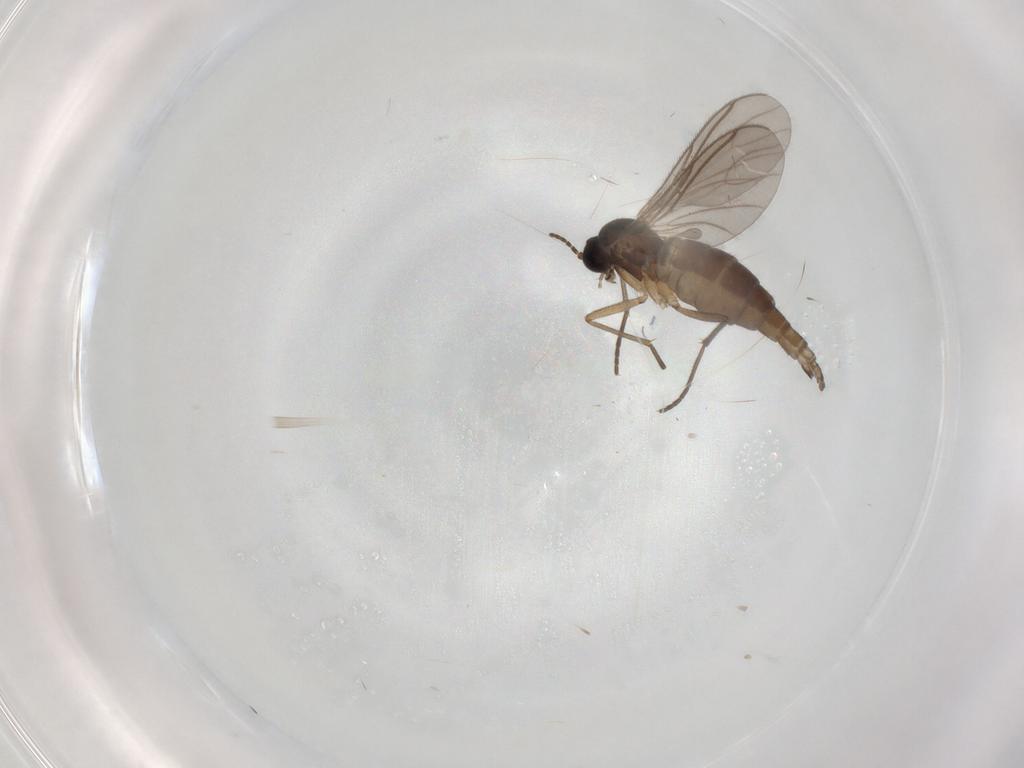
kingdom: Animalia
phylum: Arthropoda
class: Insecta
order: Diptera
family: Sciaridae
